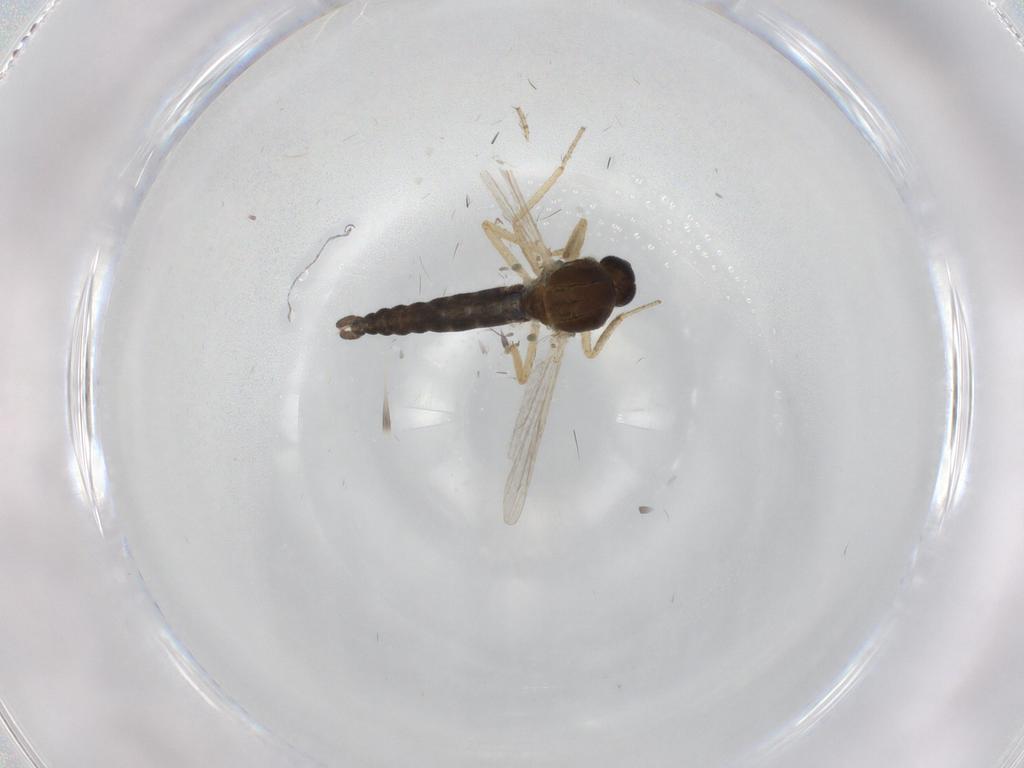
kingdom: Animalia
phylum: Arthropoda
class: Insecta
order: Diptera
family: Ceratopogonidae
